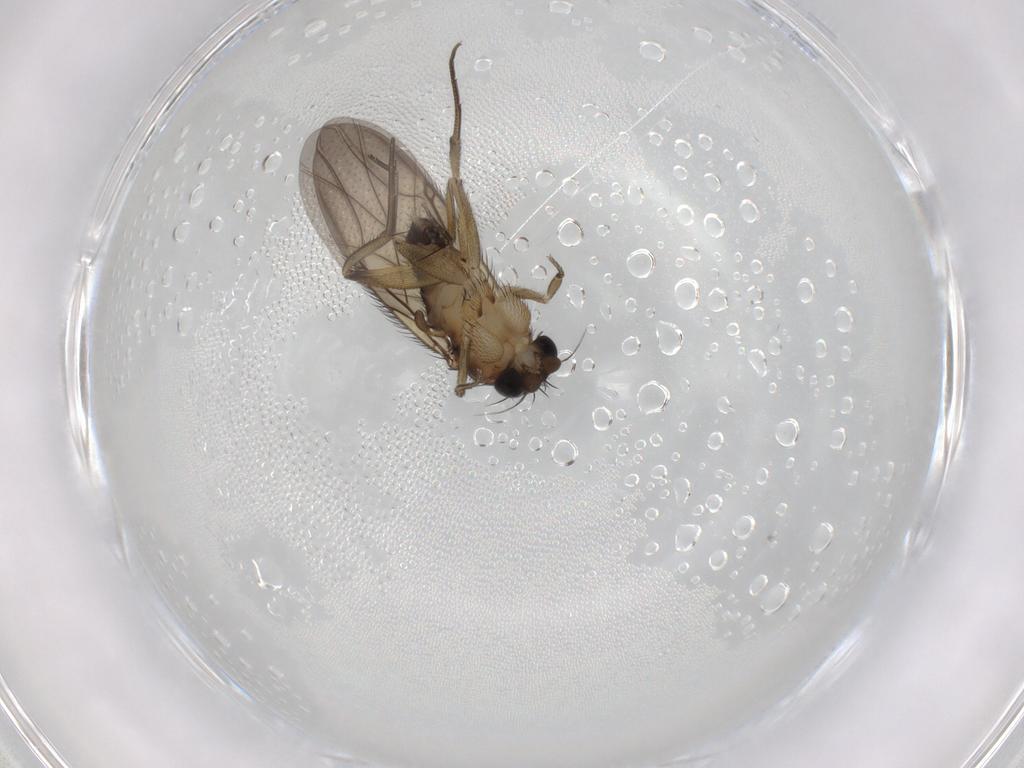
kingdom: Animalia
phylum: Arthropoda
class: Insecta
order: Diptera
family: Phoridae
